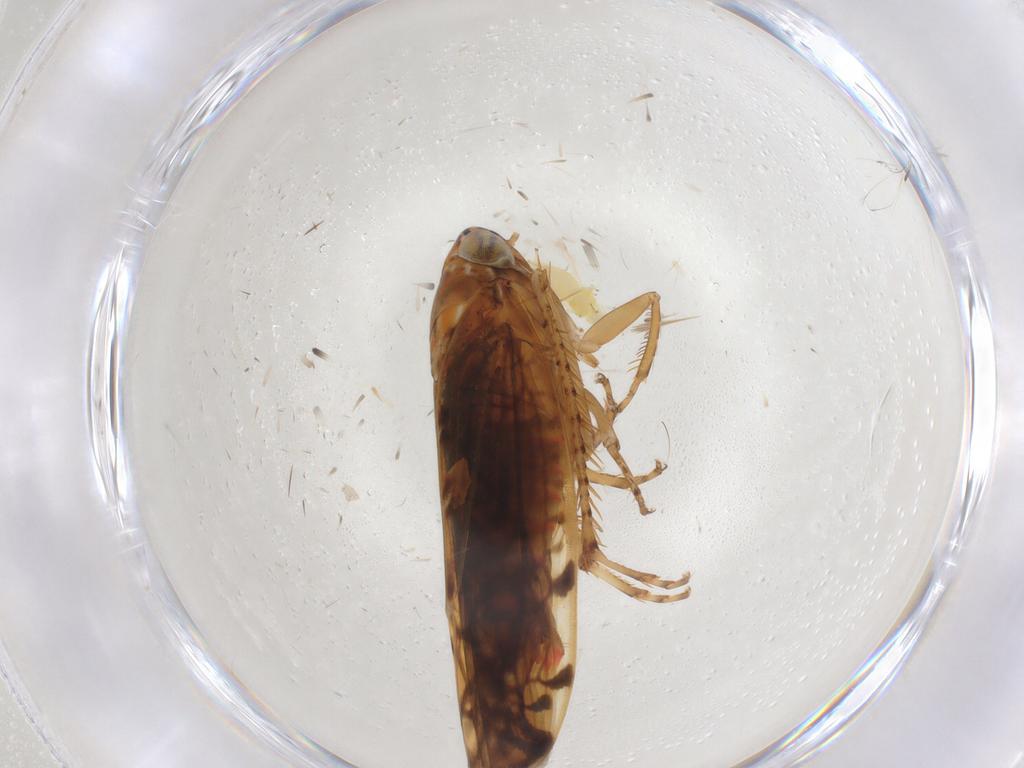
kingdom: Animalia
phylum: Arthropoda
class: Insecta
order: Hemiptera
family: Cicadellidae
